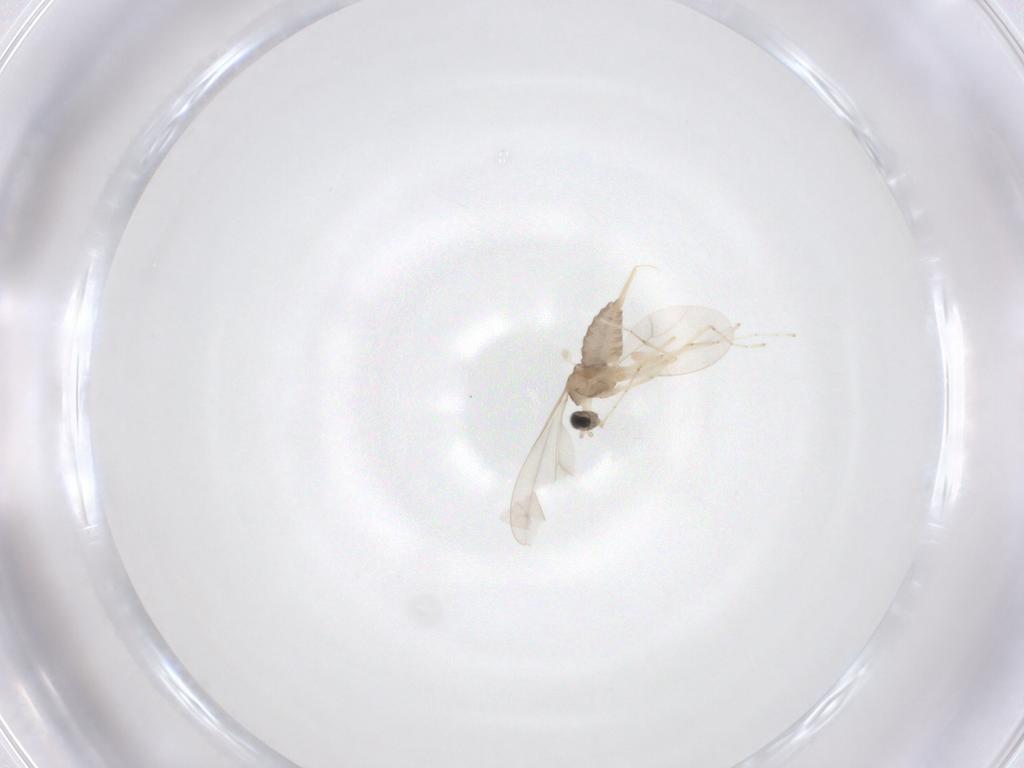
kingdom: Animalia
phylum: Arthropoda
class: Insecta
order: Diptera
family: Cecidomyiidae
